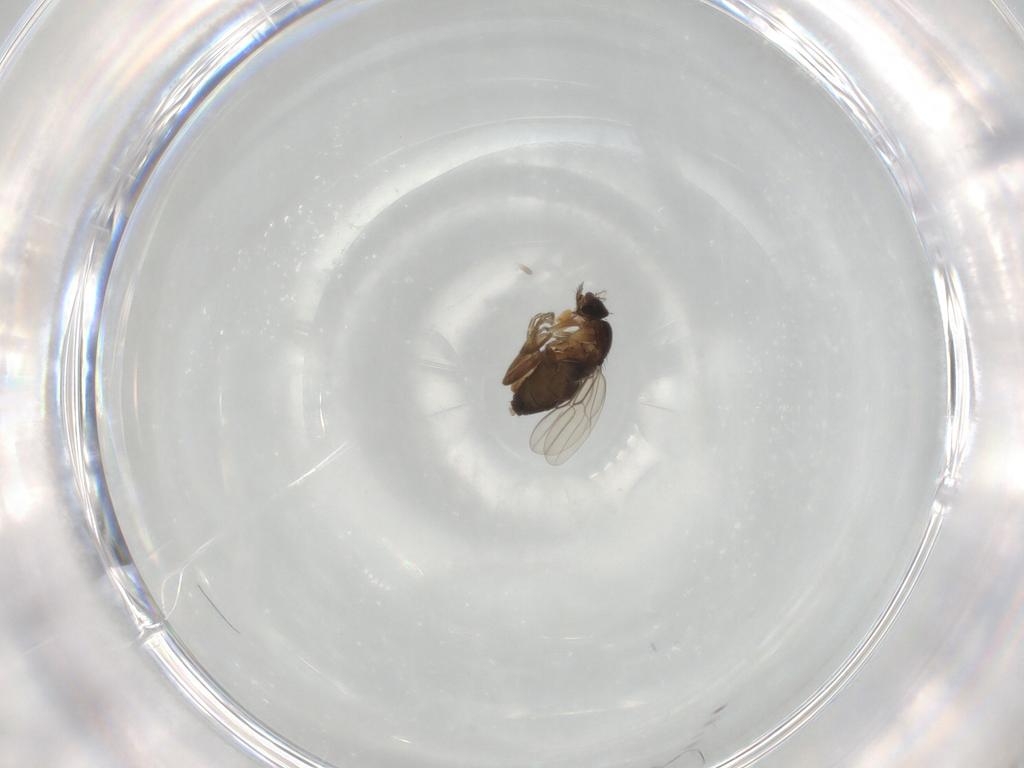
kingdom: Animalia
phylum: Arthropoda
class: Insecta
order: Diptera
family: Phoridae
